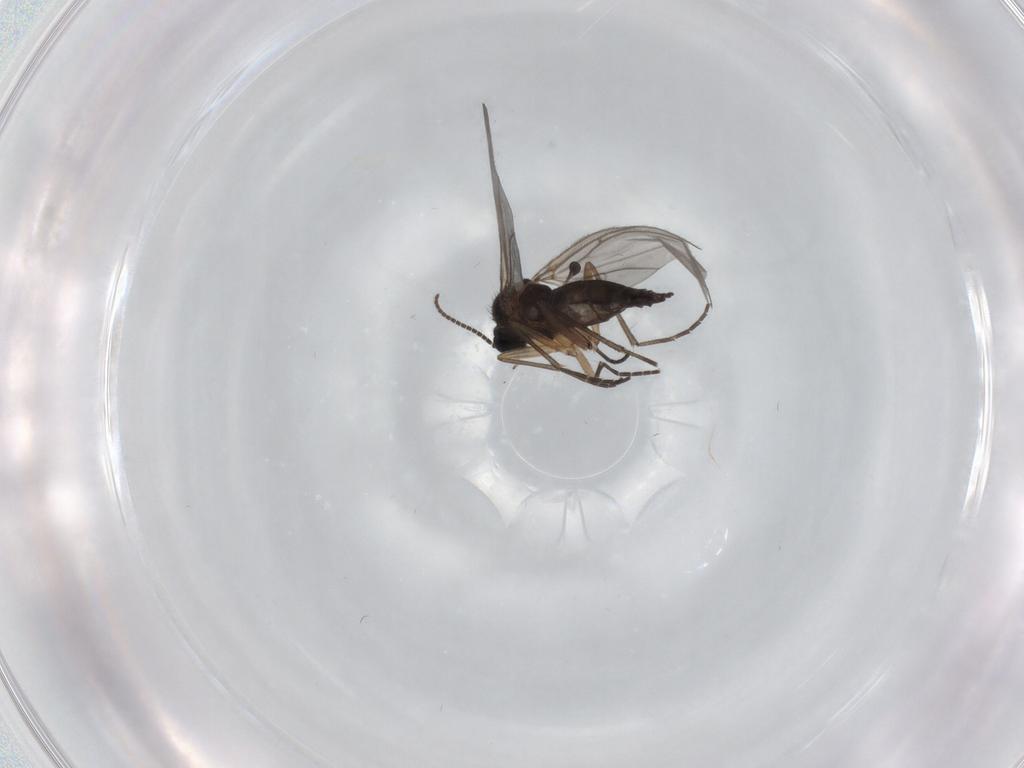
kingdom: Animalia
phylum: Arthropoda
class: Insecta
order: Diptera
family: Sciaridae
